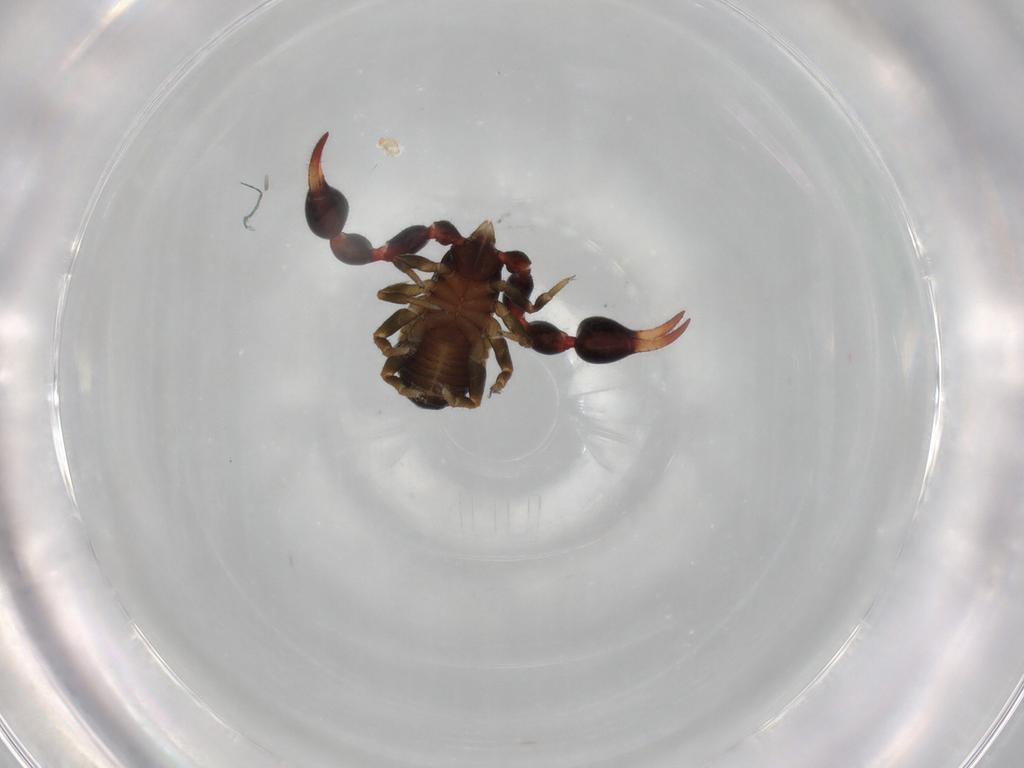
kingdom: Animalia
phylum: Arthropoda
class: Arachnida
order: Pseudoscorpiones
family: Chernetidae
